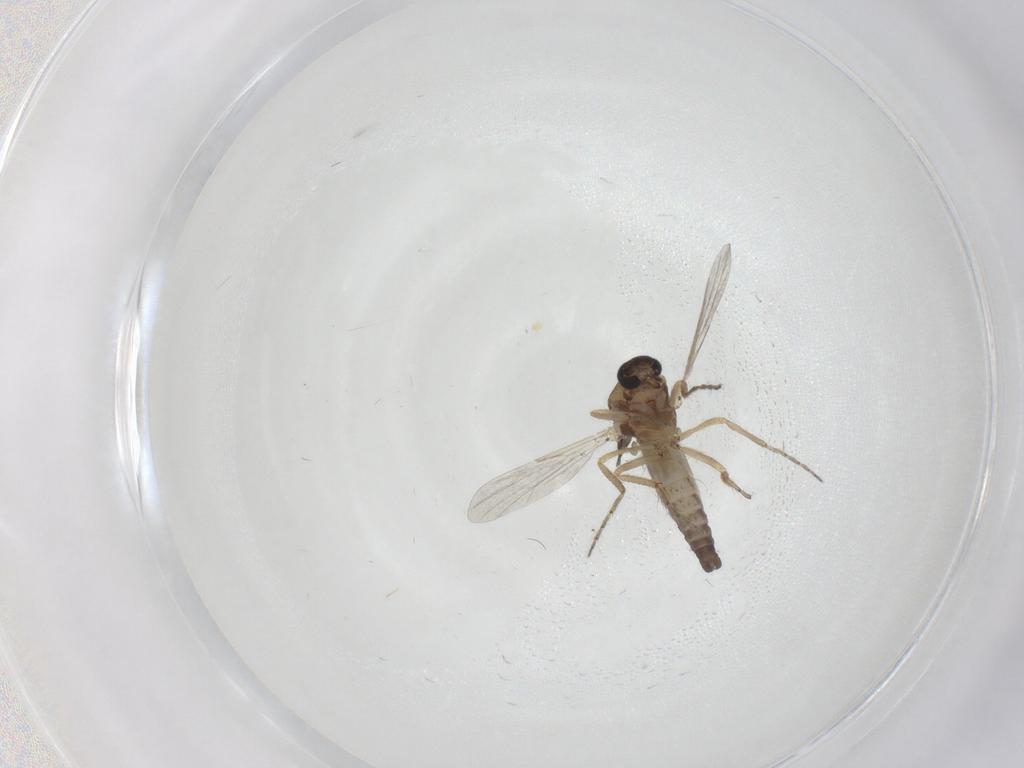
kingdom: Animalia
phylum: Arthropoda
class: Insecta
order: Diptera
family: Ceratopogonidae
